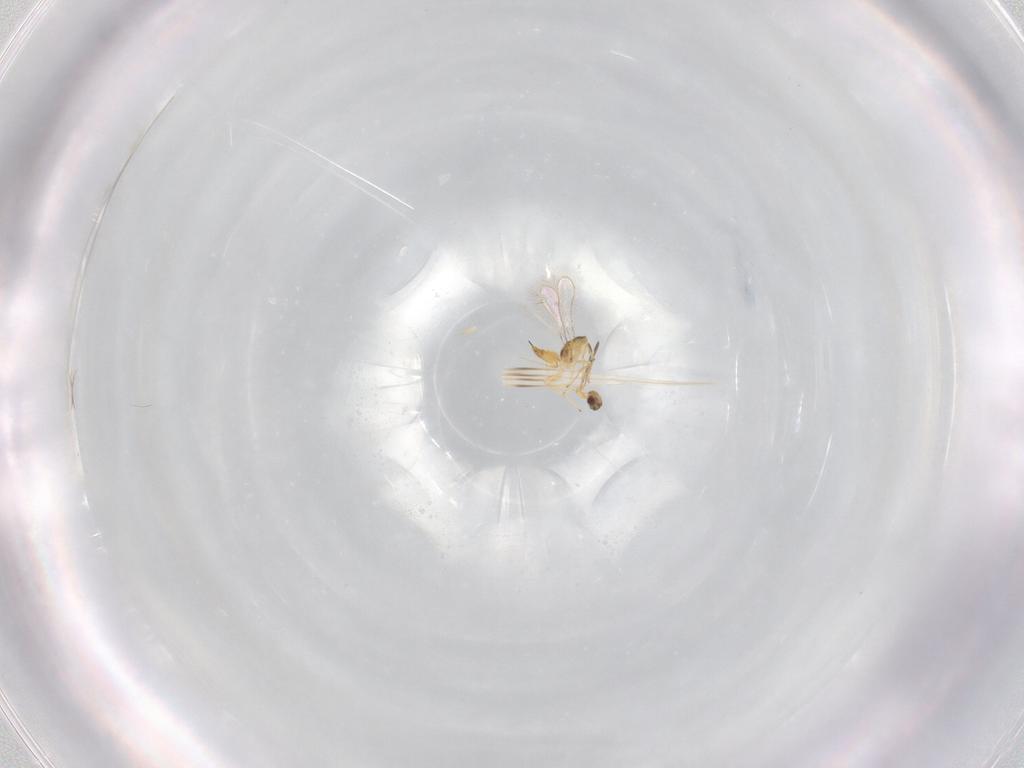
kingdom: Animalia
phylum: Arthropoda
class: Insecta
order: Hymenoptera
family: Mymaridae
